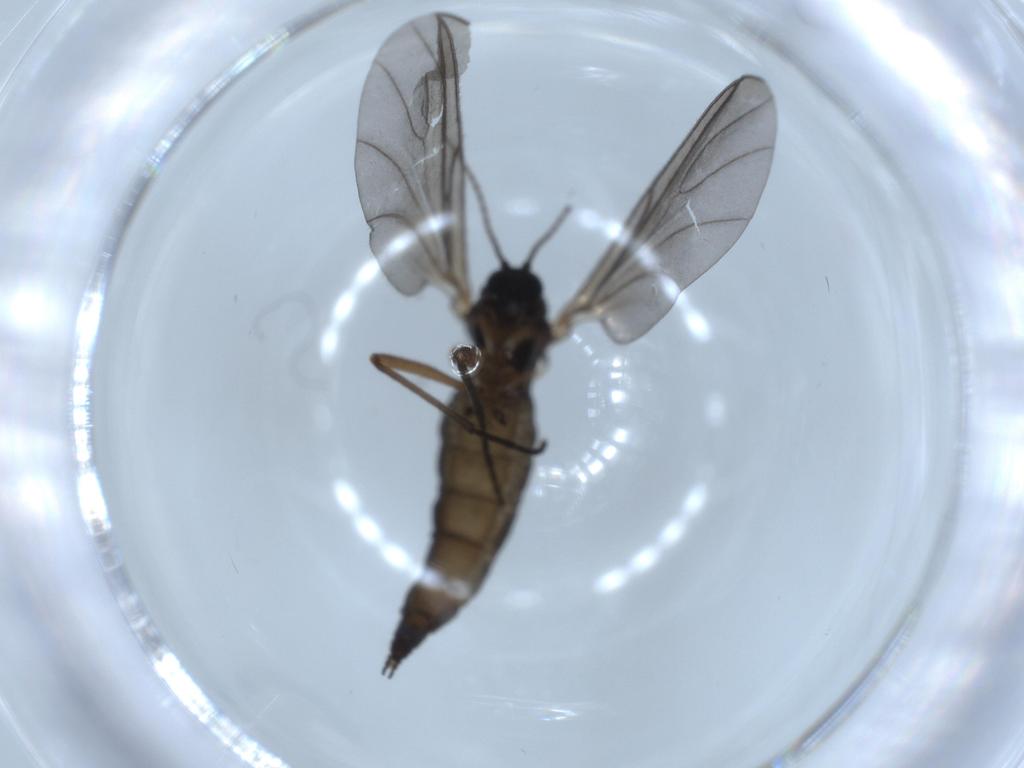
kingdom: Animalia
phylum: Arthropoda
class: Insecta
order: Diptera
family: Sciaridae
